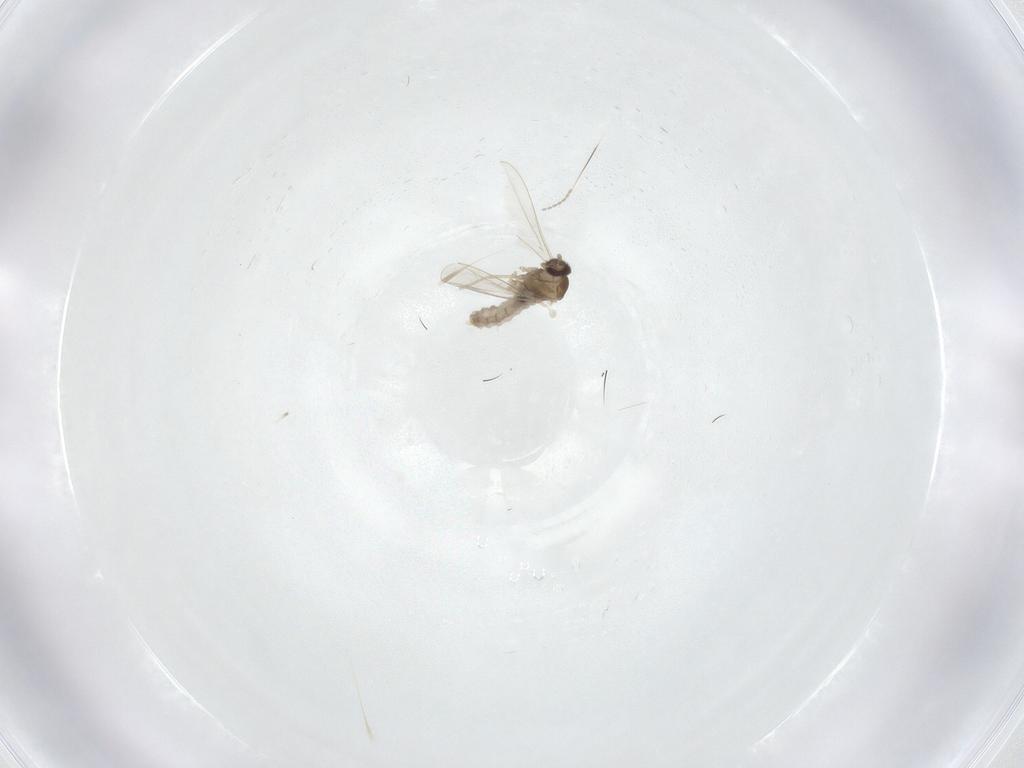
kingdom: Animalia
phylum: Arthropoda
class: Insecta
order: Diptera
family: Cecidomyiidae
